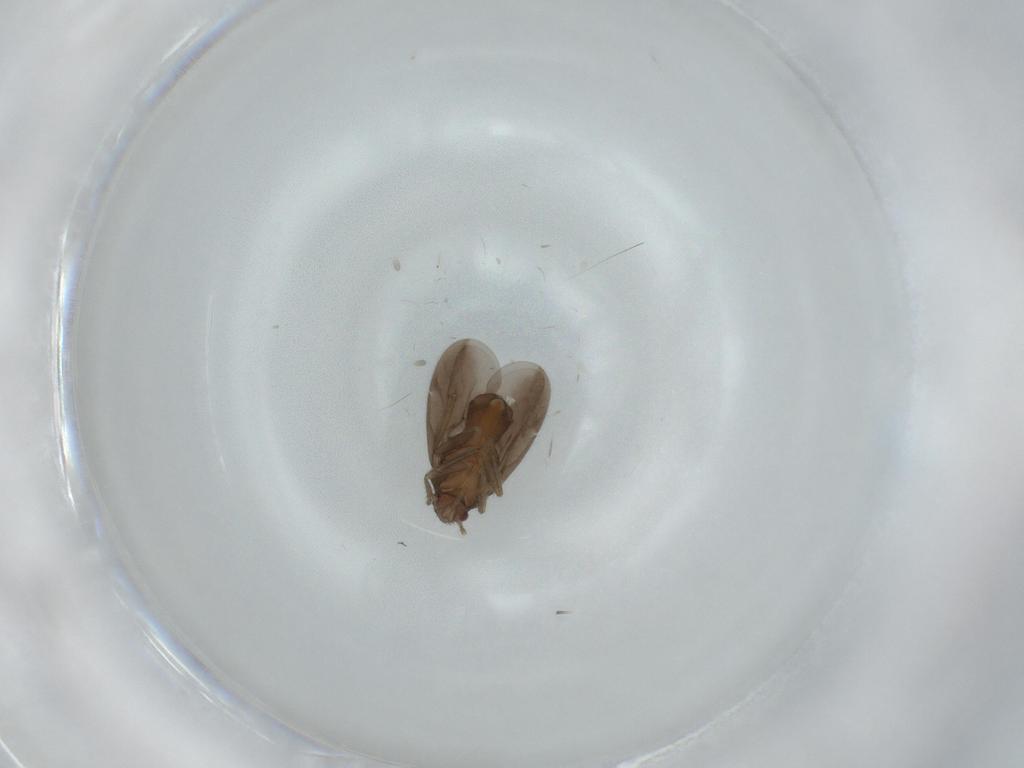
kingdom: Animalia
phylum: Arthropoda
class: Insecta
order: Hemiptera
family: Ceratocombidae
